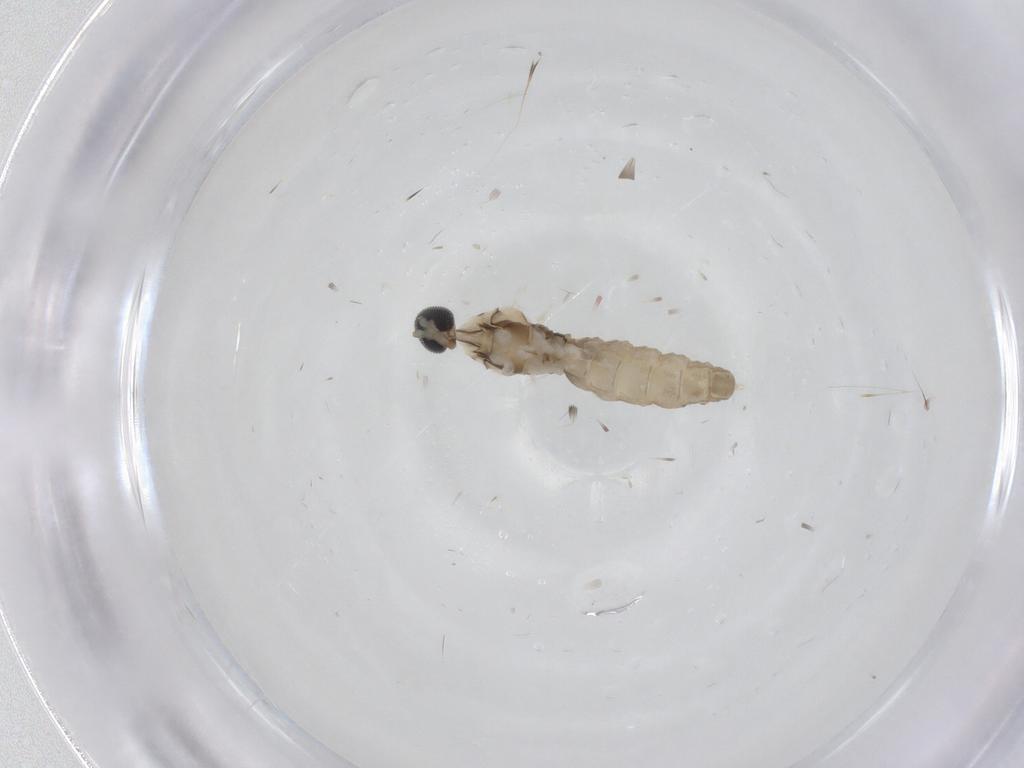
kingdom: Animalia
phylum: Arthropoda
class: Insecta
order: Diptera
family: Cecidomyiidae
